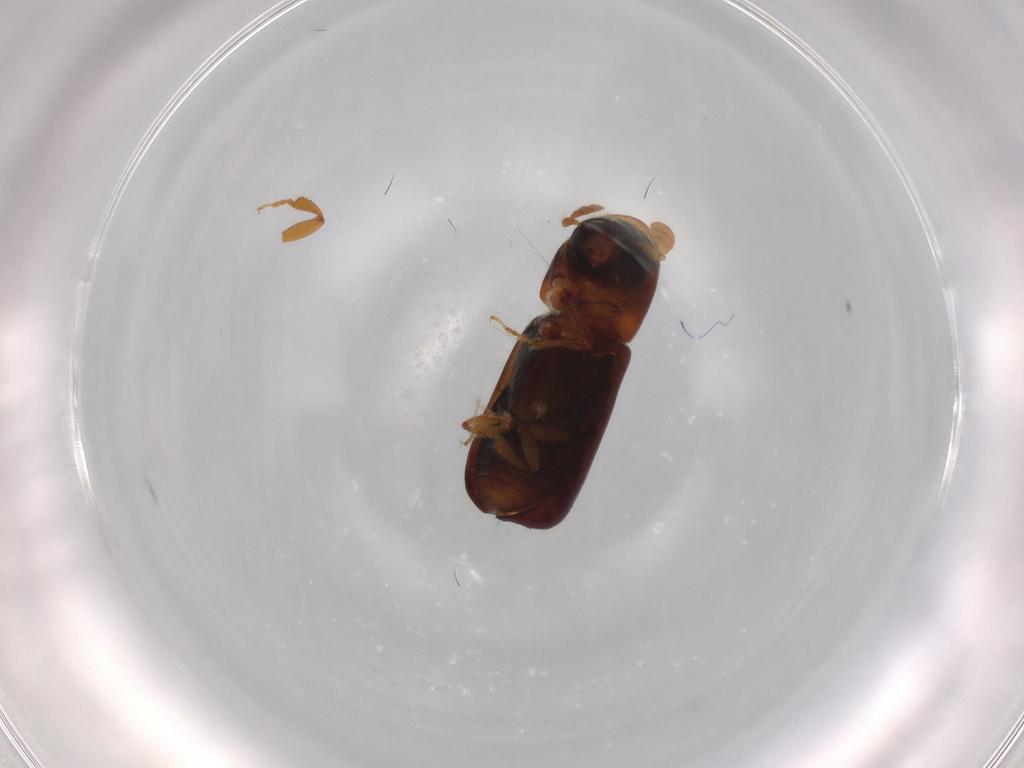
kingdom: Animalia
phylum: Arthropoda
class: Insecta
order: Coleoptera
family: Curculionidae
